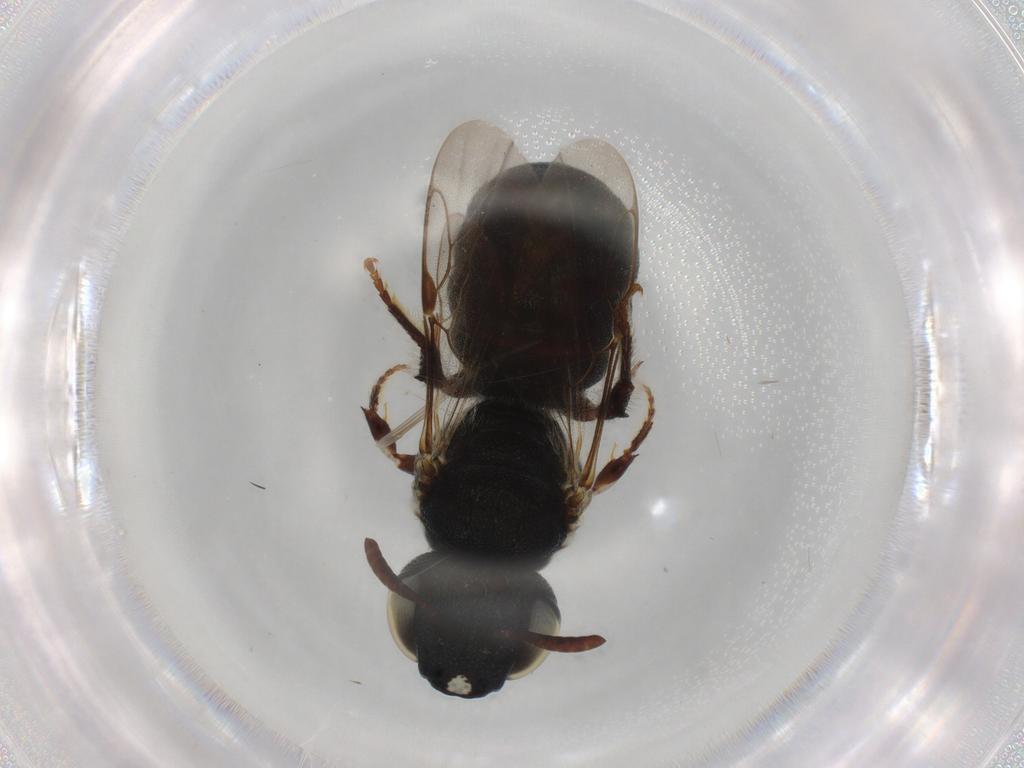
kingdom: Animalia
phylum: Arthropoda
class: Insecta
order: Hymenoptera
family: Apidae
